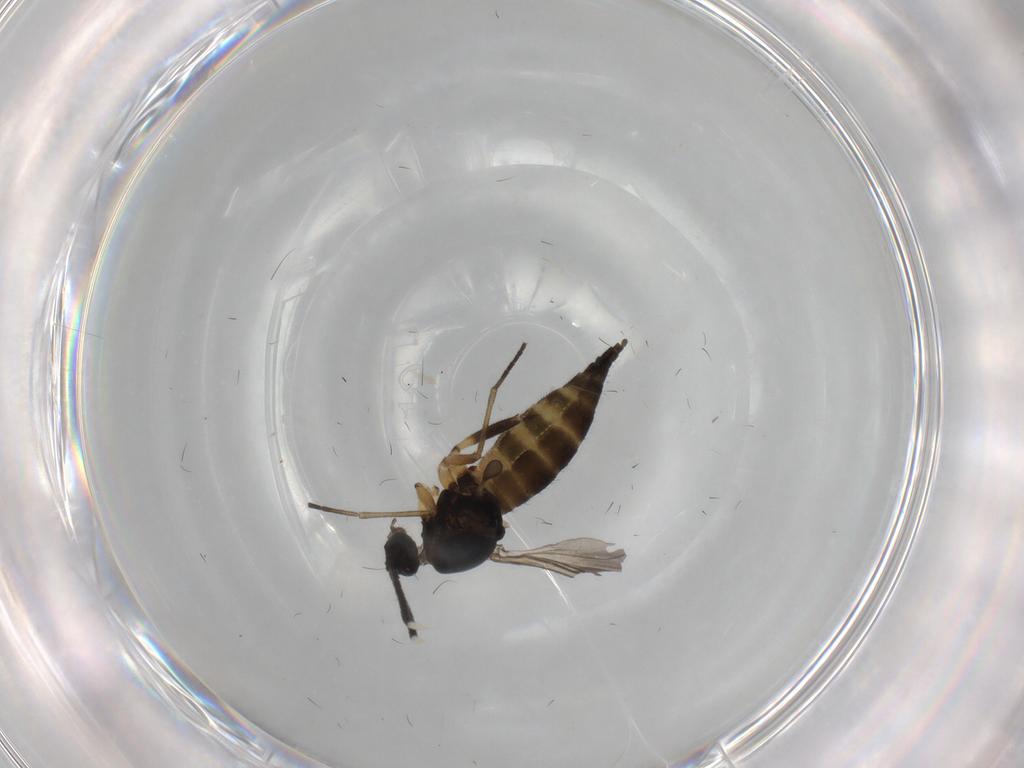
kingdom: Animalia
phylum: Arthropoda
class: Insecta
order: Diptera
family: Sciaridae
